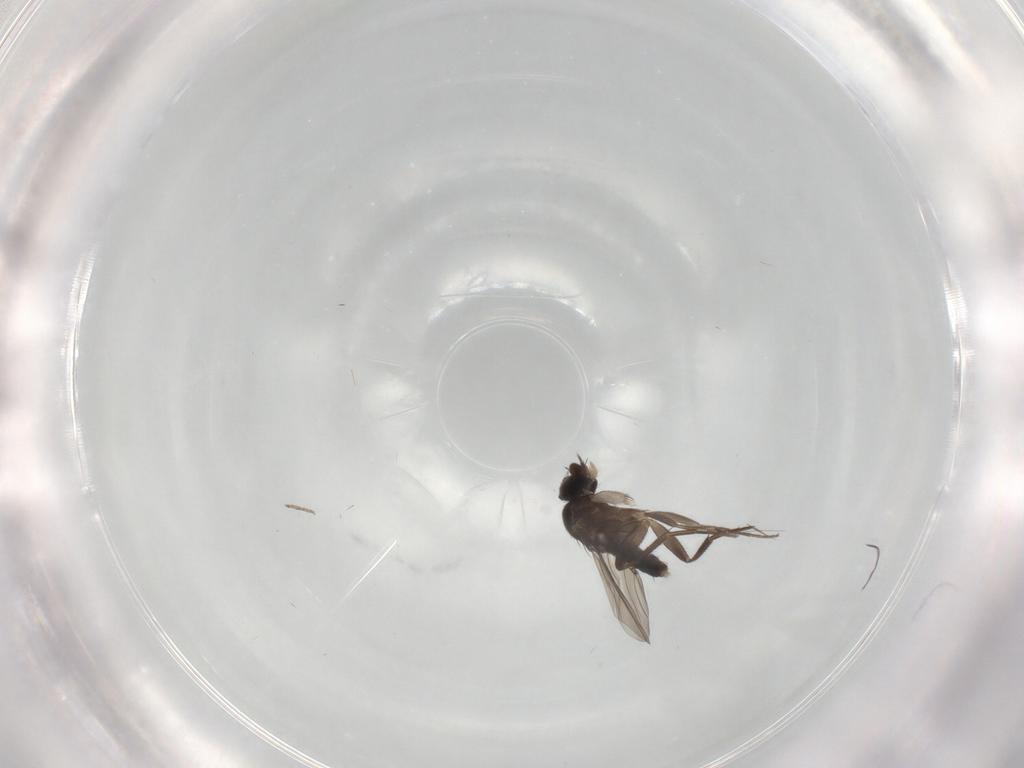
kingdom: Animalia
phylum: Arthropoda
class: Insecta
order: Diptera
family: Phoridae
